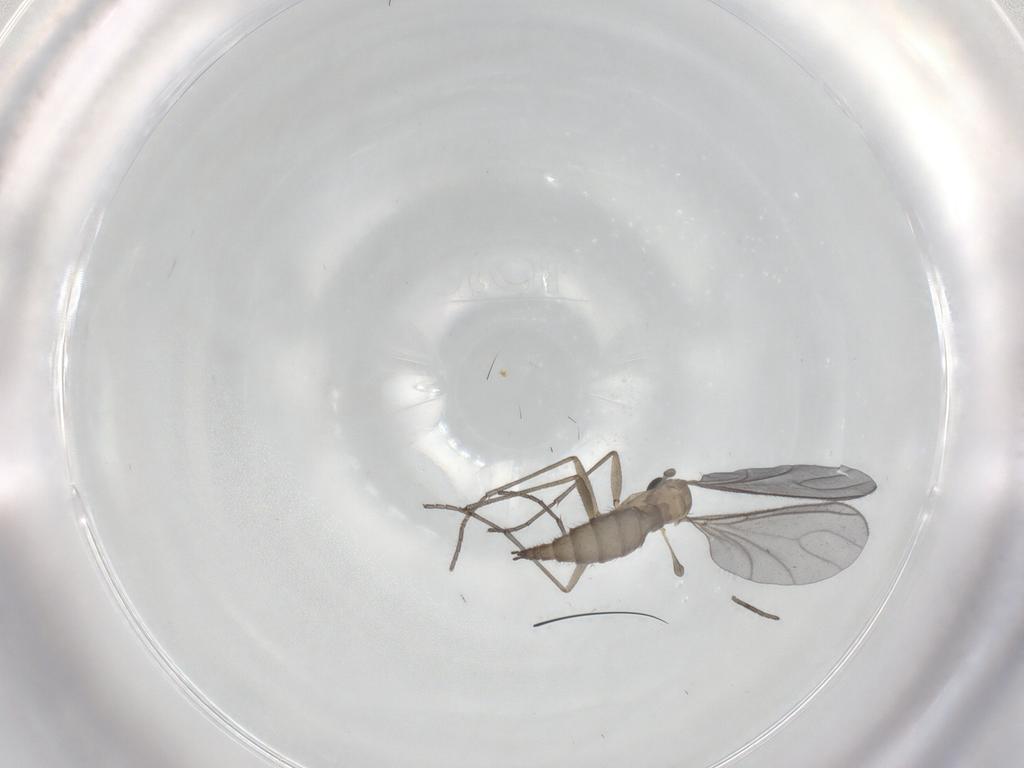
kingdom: Animalia
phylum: Arthropoda
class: Insecta
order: Diptera
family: Sciaridae
